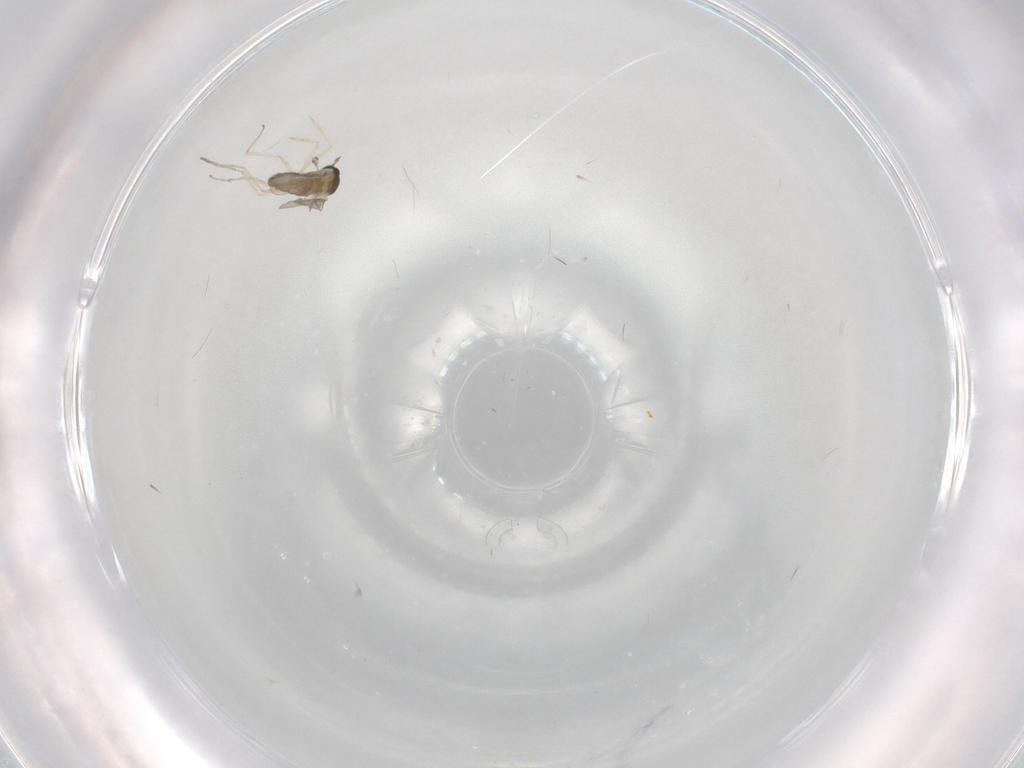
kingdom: Animalia
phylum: Arthropoda
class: Insecta
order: Diptera
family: Cecidomyiidae
